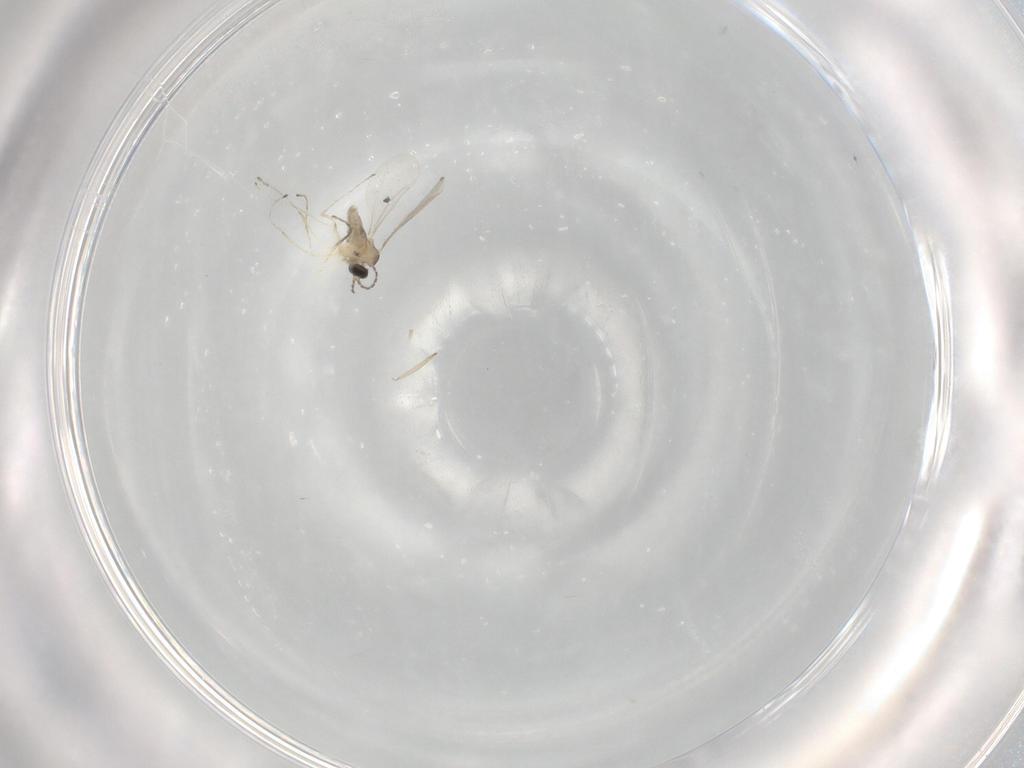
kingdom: Animalia
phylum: Arthropoda
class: Insecta
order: Diptera
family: Cecidomyiidae
